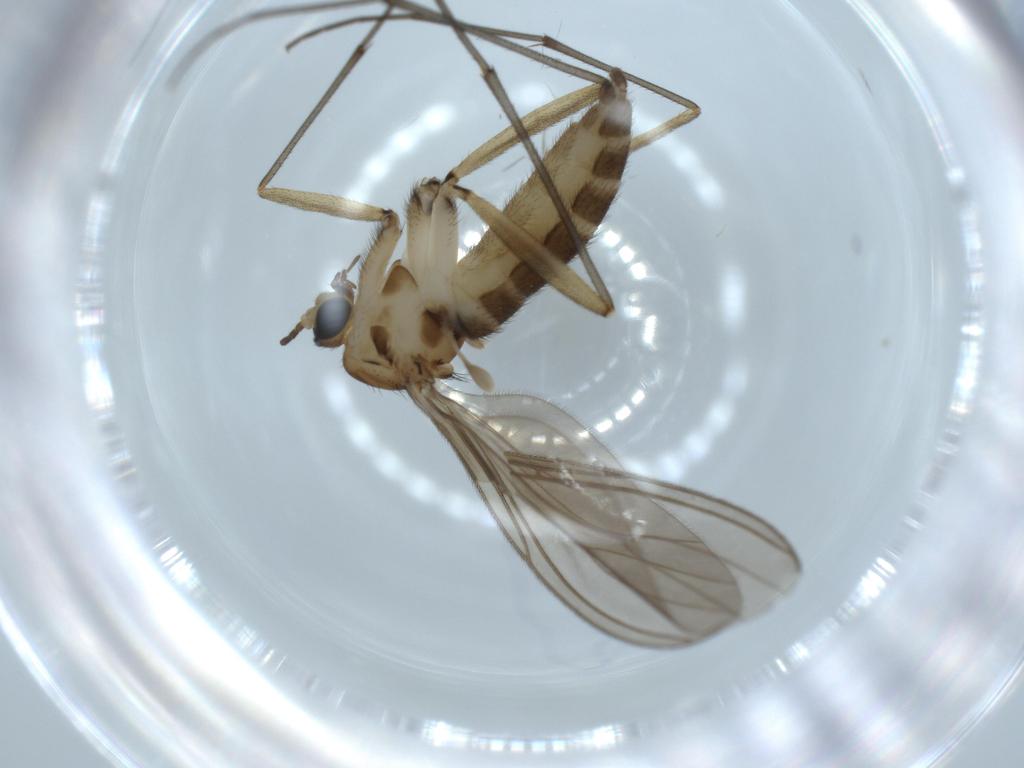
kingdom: Animalia
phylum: Arthropoda
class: Insecta
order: Diptera
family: Sciaridae
